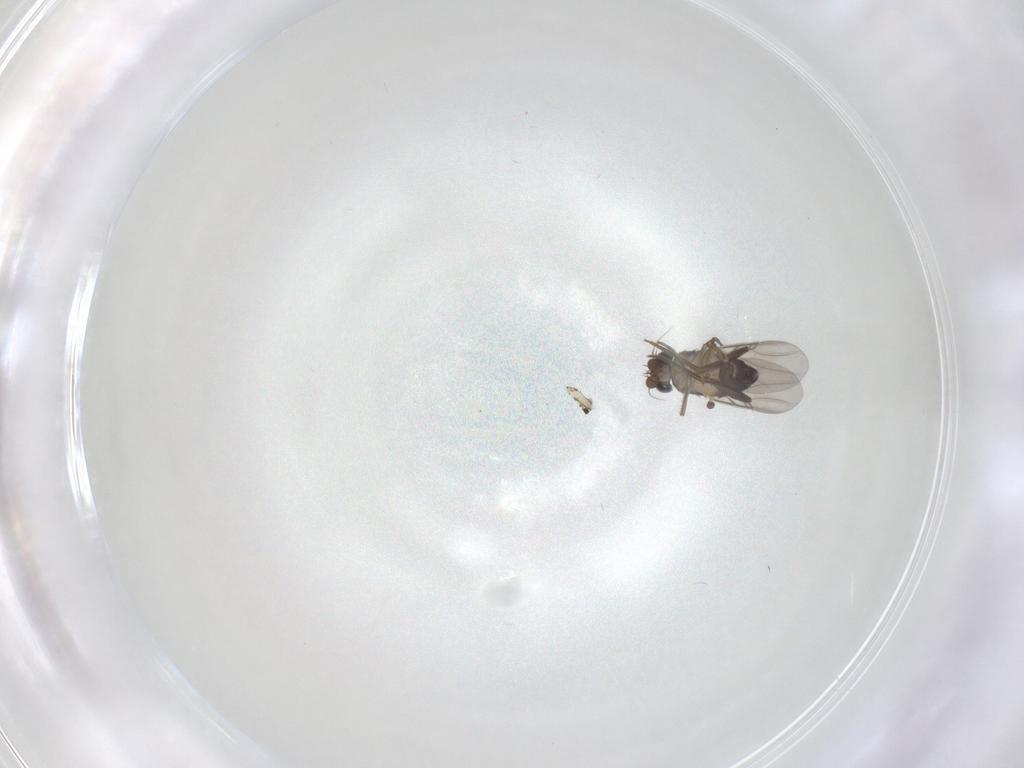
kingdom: Animalia
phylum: Arthropoda
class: Insecta
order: Diptera
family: Phoridae
